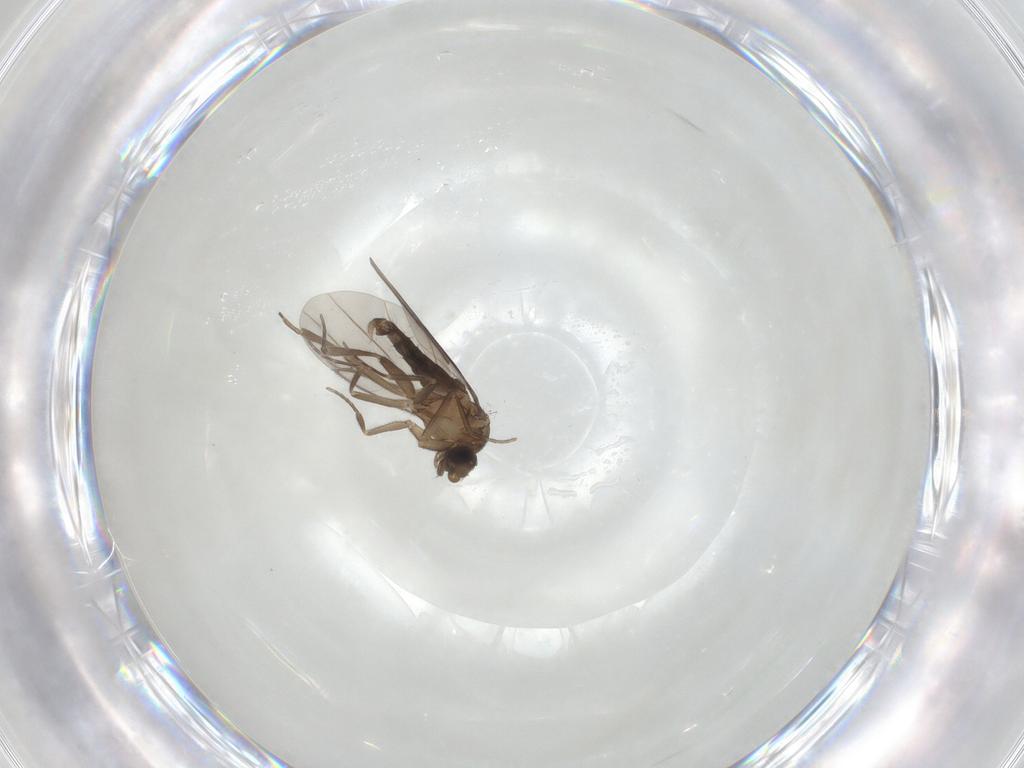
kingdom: Animalia
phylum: Arthropoda
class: Insecta
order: Diptera
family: Phoridae
